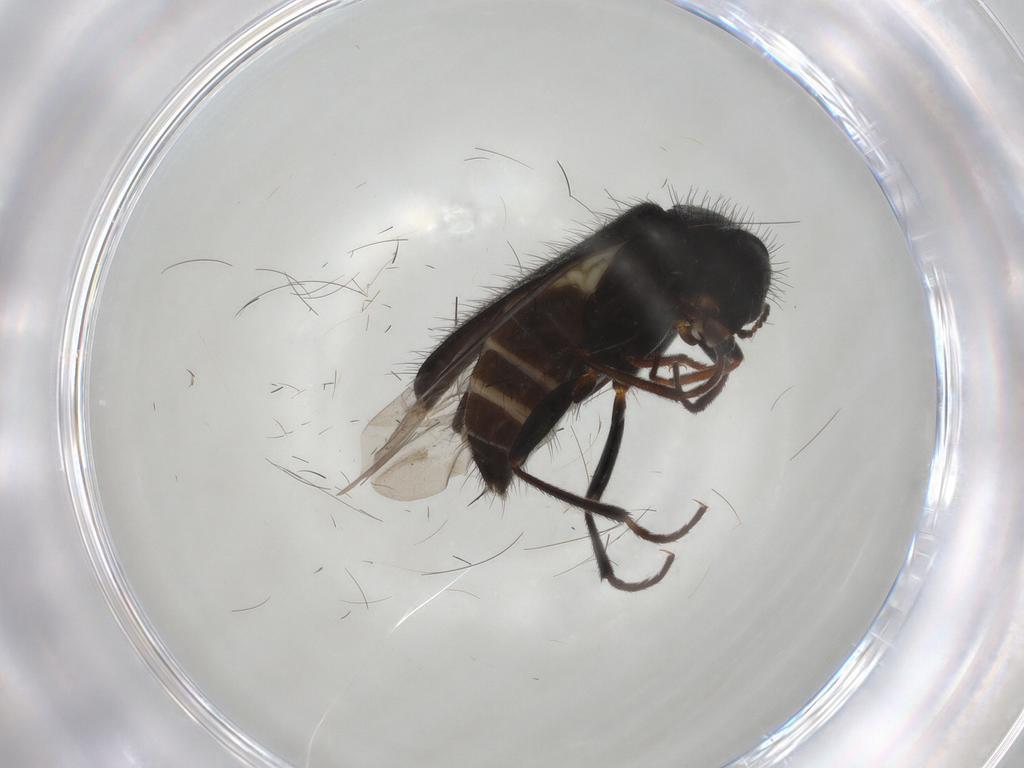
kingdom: Animalia
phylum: Arthropoda
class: Insecta
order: Coleoptera
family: Melyridae
